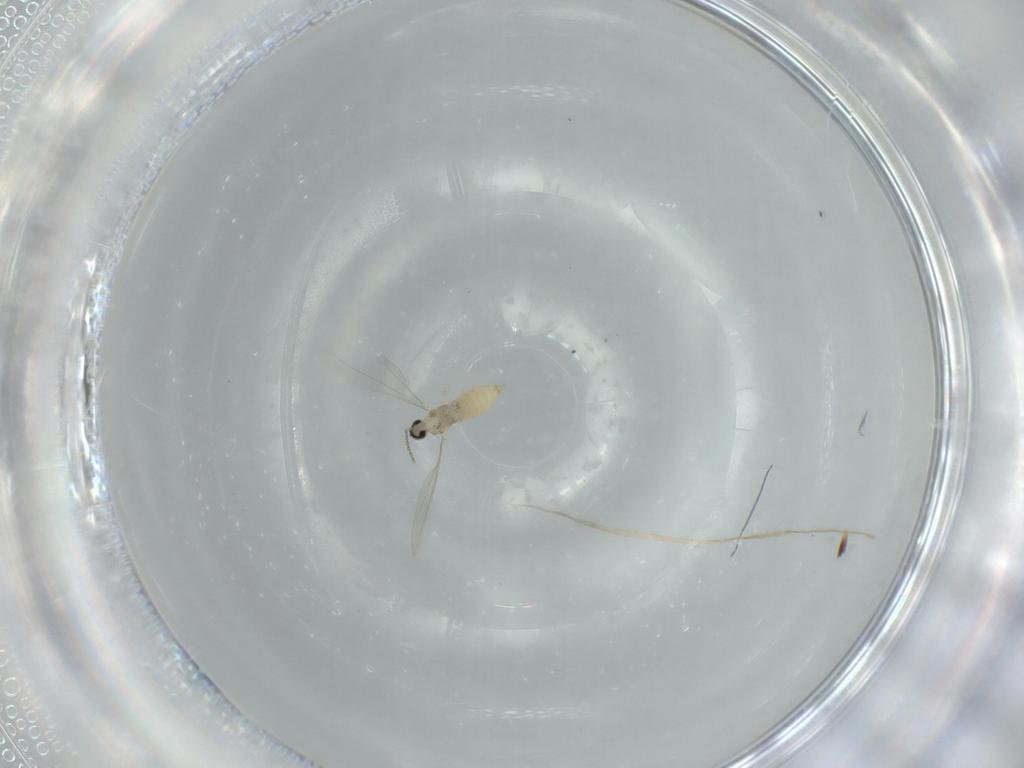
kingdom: Animalia
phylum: Arthropoda
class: Insecta
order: Diptera
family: Cecidomyiidae
